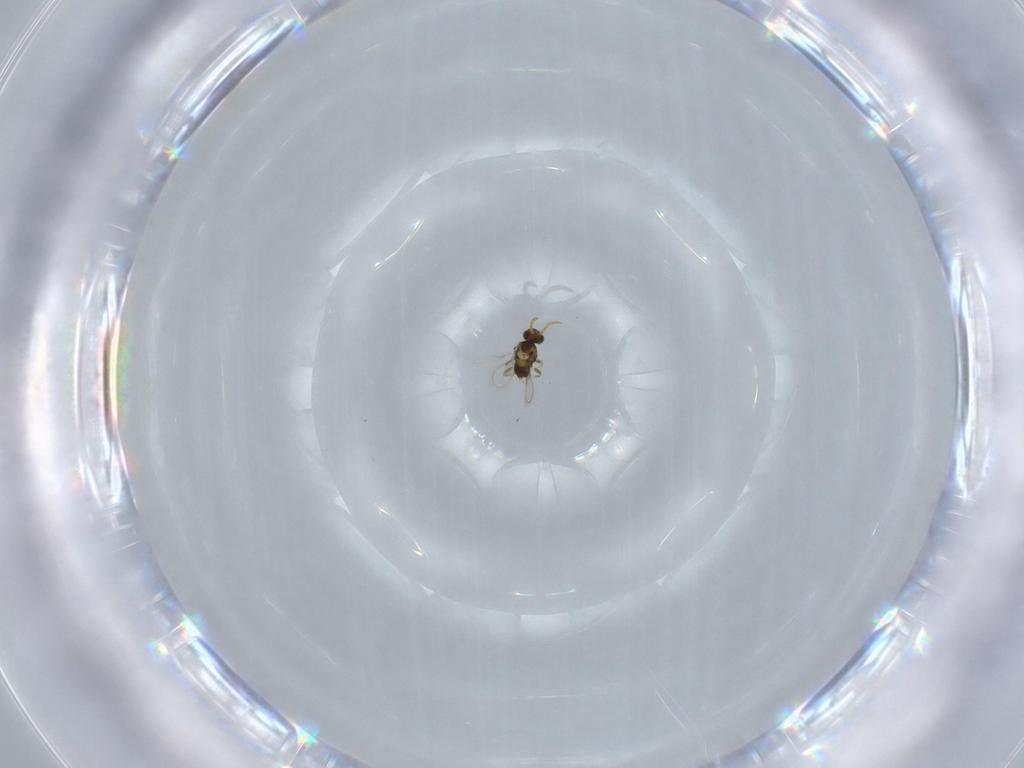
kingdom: Animalia
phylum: Arthropoda
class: Insecta
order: Hymenoptera
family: Aphelinidae
